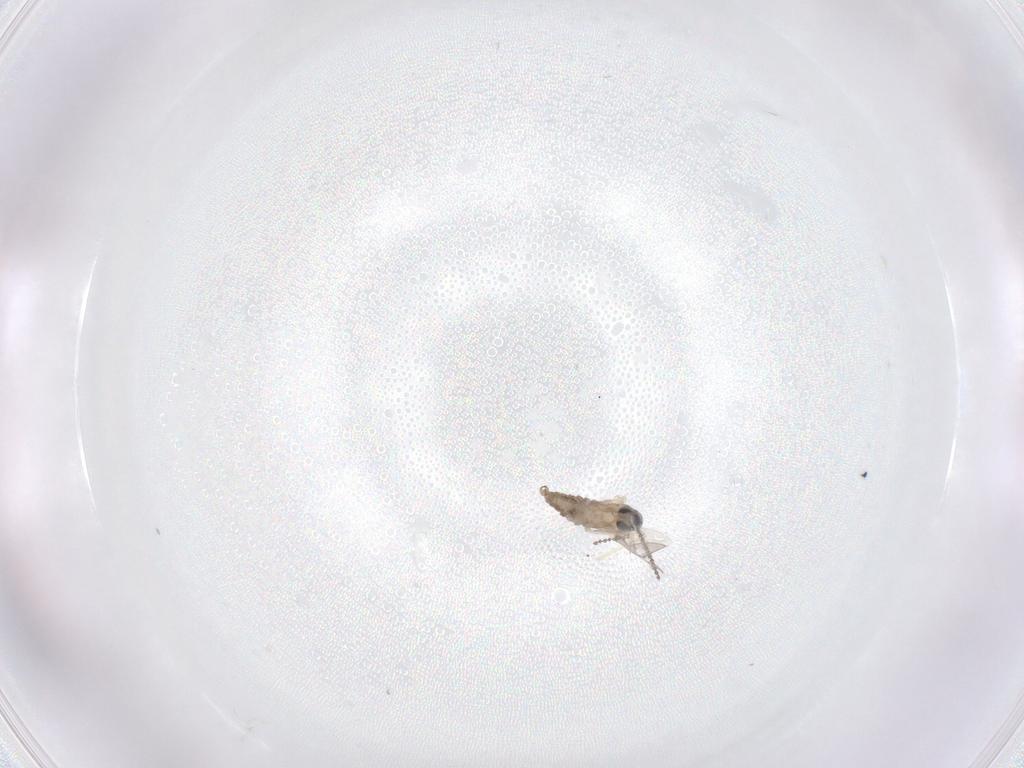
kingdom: Animalia
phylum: Arthropoda
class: Insecta
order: Diptera
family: Cecidomyiidae
